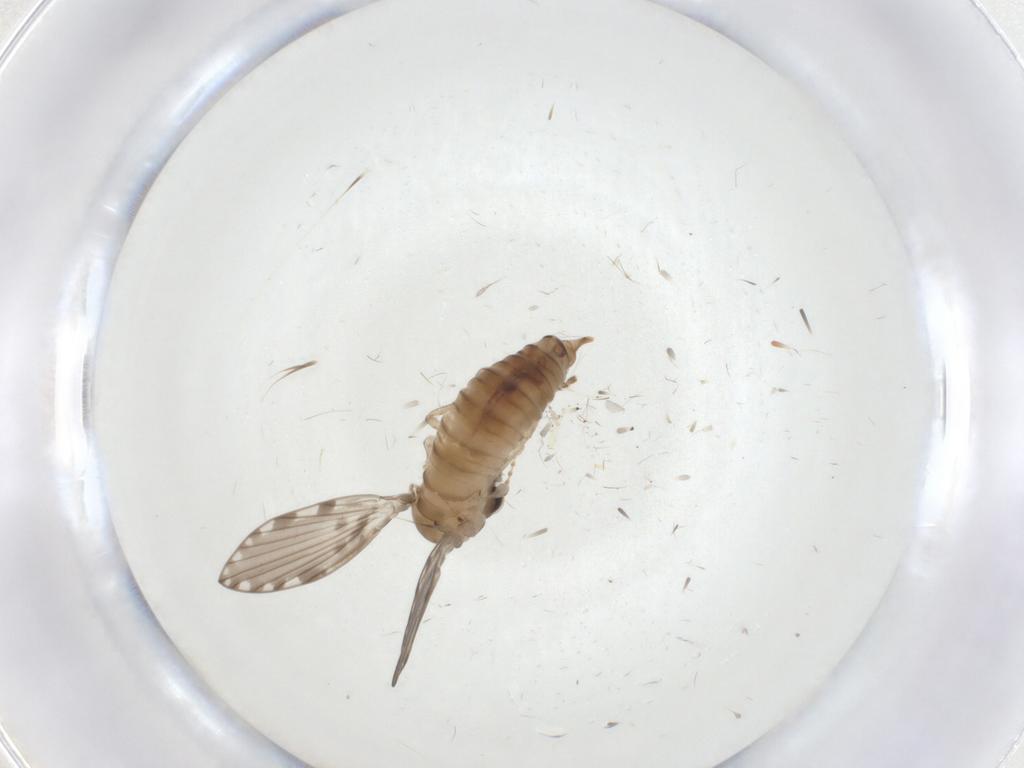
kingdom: Animalia
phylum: Arthropoda
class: Insecta
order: Diptera
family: Psychodidae
